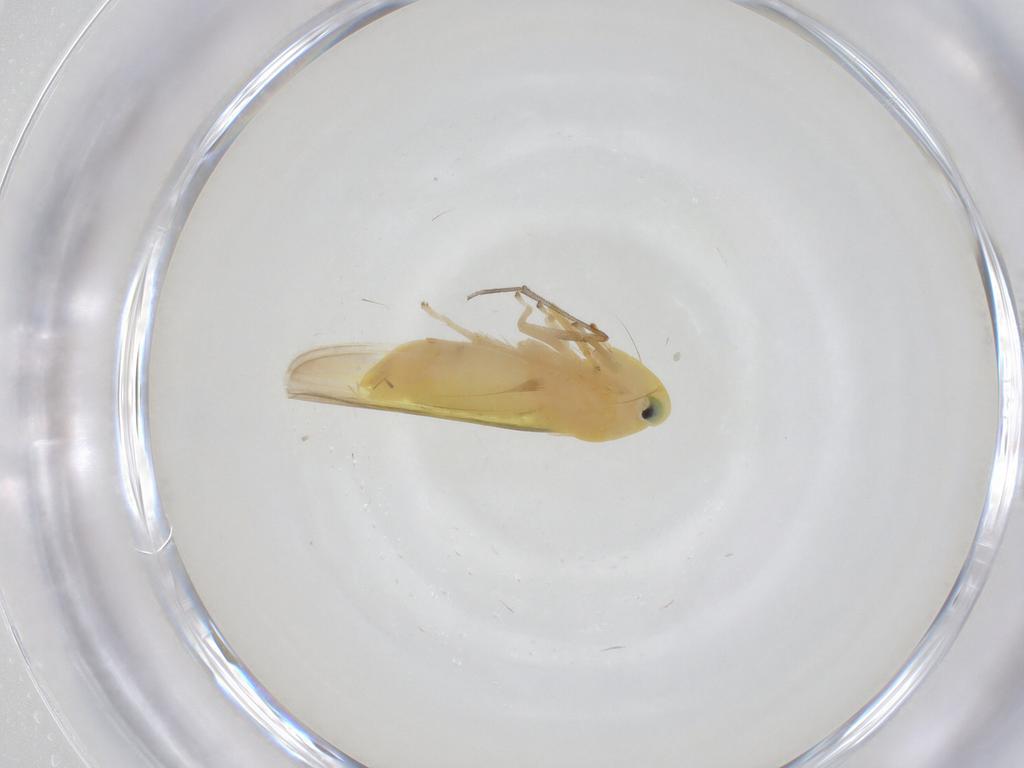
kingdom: Animalia
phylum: Arthropoda
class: Insecta
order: Hemiptera
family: Cicadellidae
